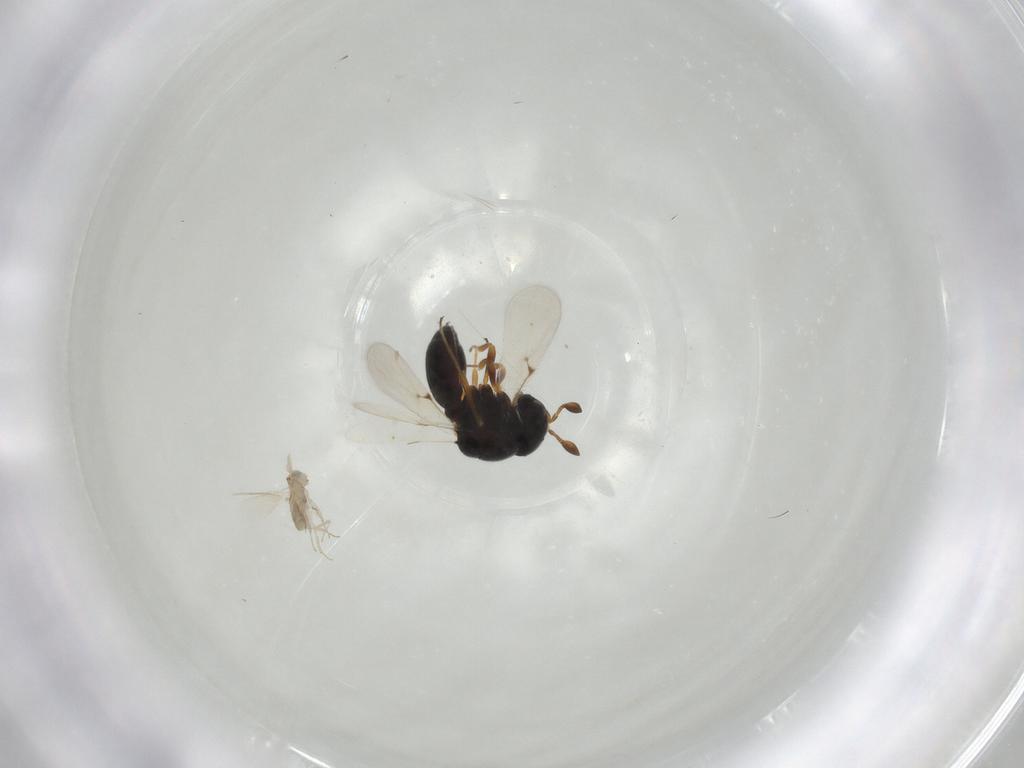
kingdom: Animalia
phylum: Arthropoda
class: Insecta
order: Hymenoptera
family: Scelionidae
